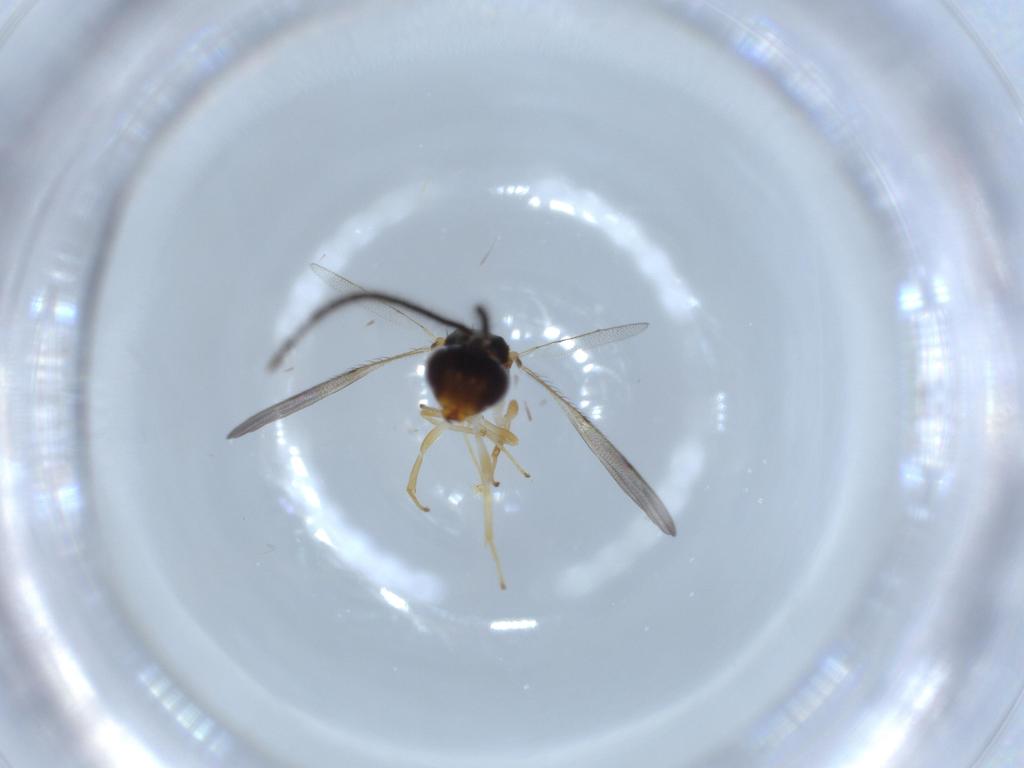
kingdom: Animalia
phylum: Arthropoda
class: Insecta
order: Hymenoptera
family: Diparidae
